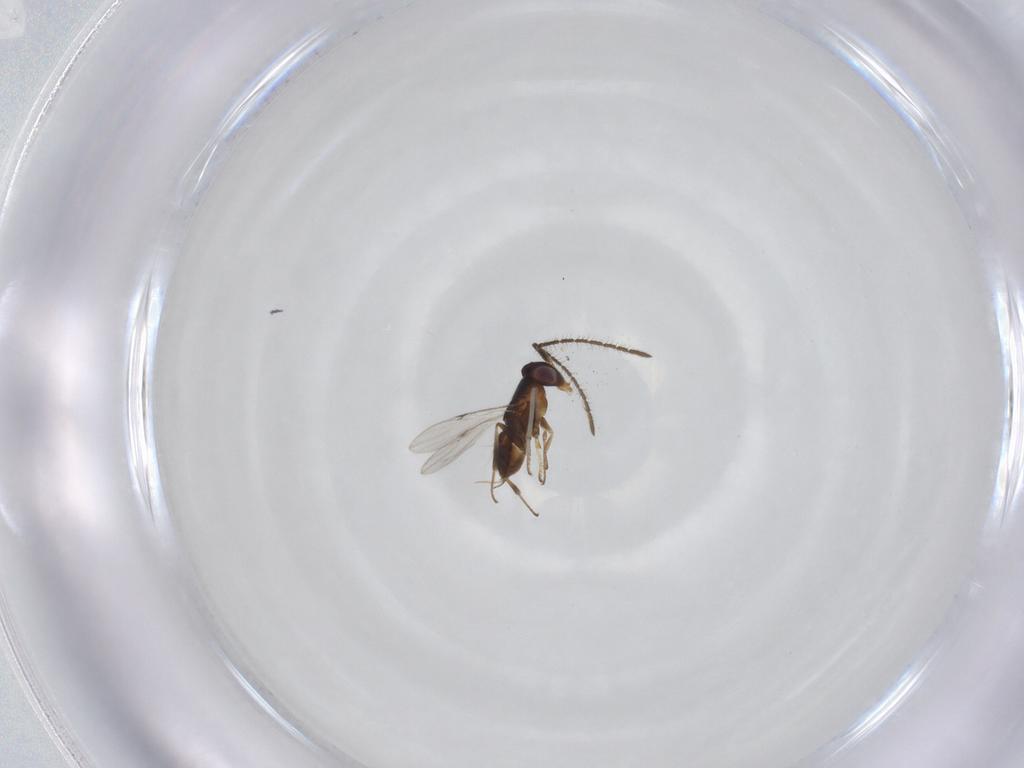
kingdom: Animalia
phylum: Arthropoda
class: Insecta
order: Hymenoptera
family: Encyrtidae
